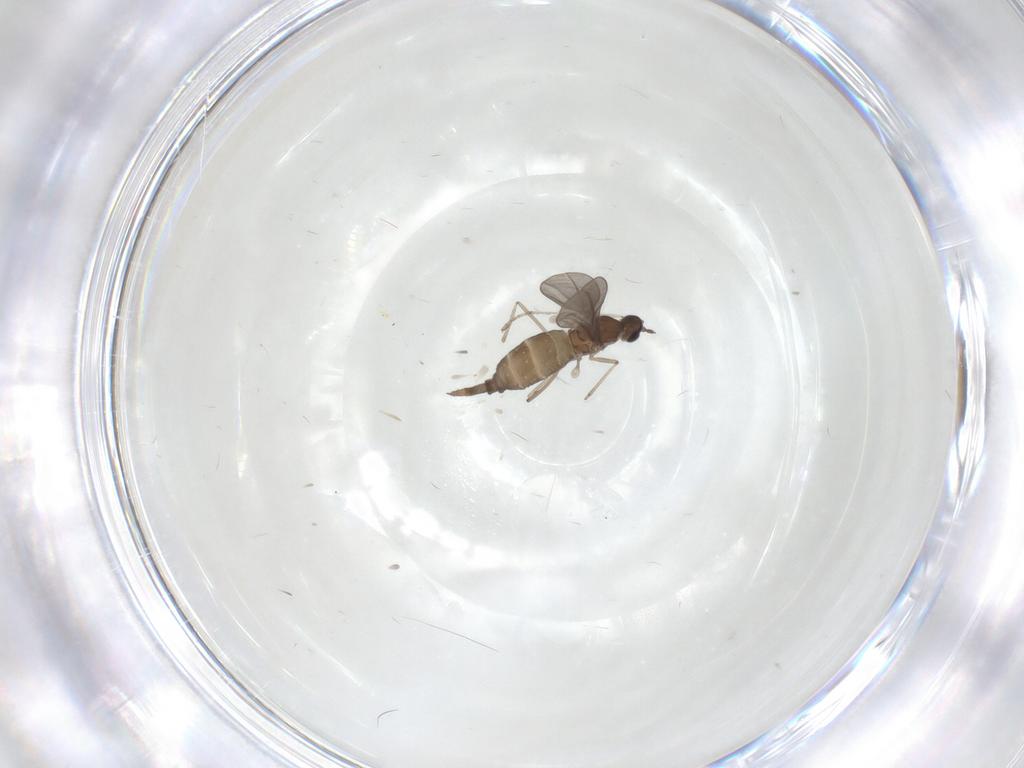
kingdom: Animalia
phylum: Arthropoda
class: Insecta
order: Diptera
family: Cecidomyiidae
